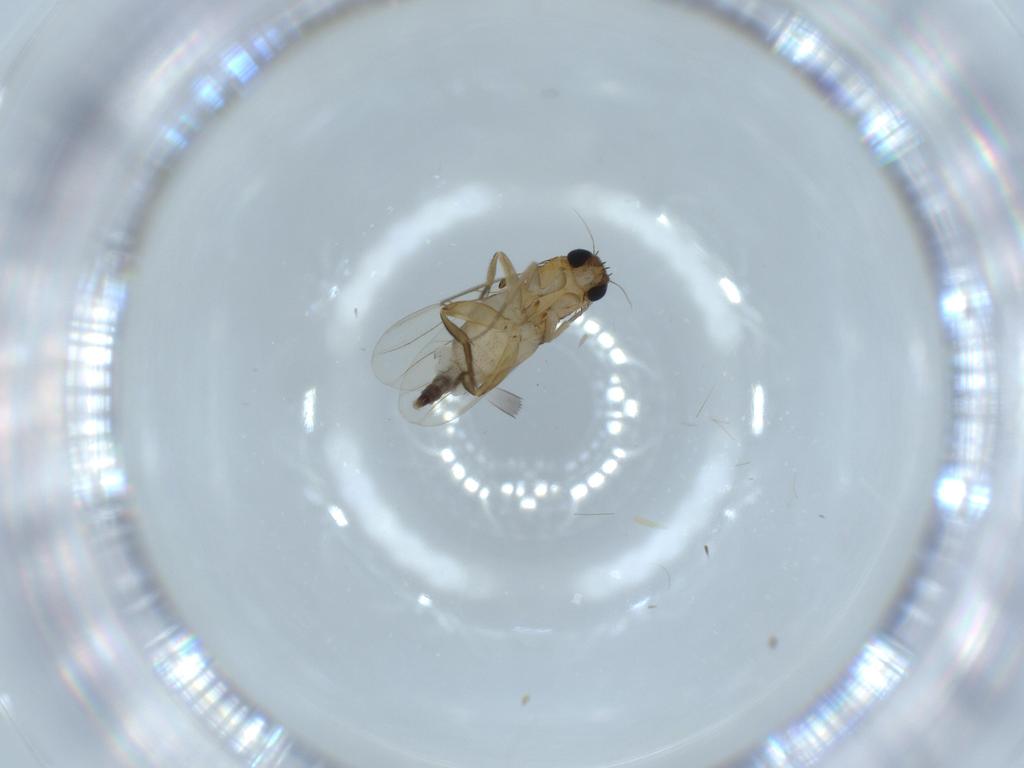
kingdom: Animalia
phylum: Arthropoda
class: Insecta
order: Diptera
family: Phoridae
